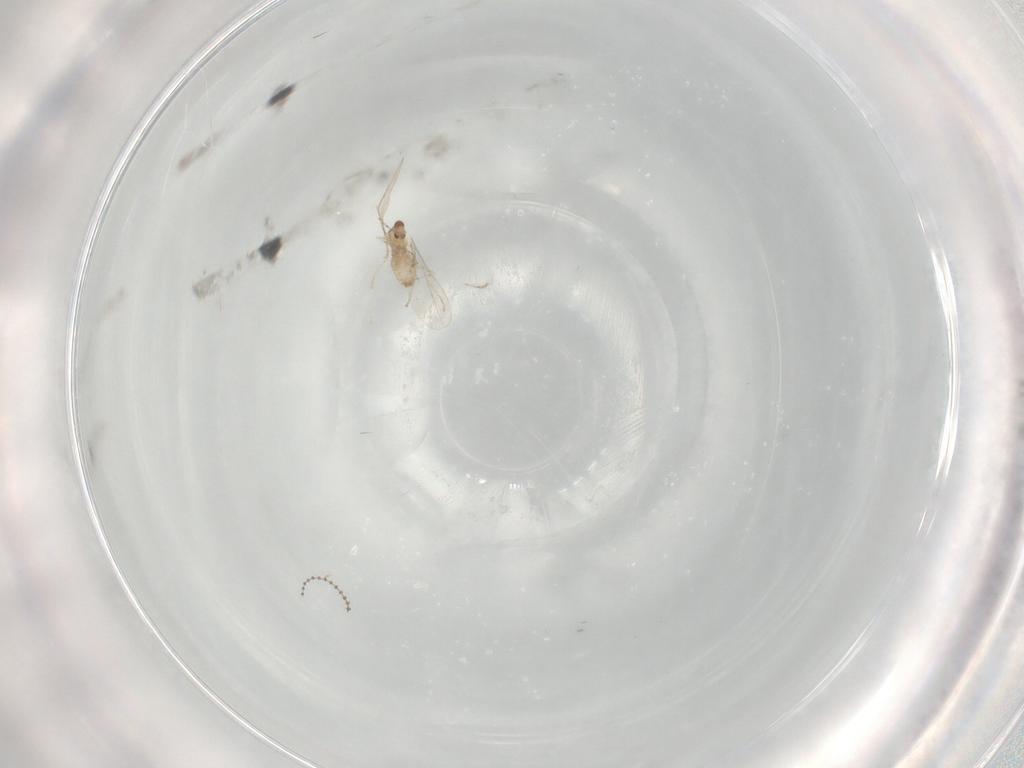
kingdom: Animalia
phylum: Arthropoda
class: Insecta
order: Diptera
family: Cecidomyiidae
